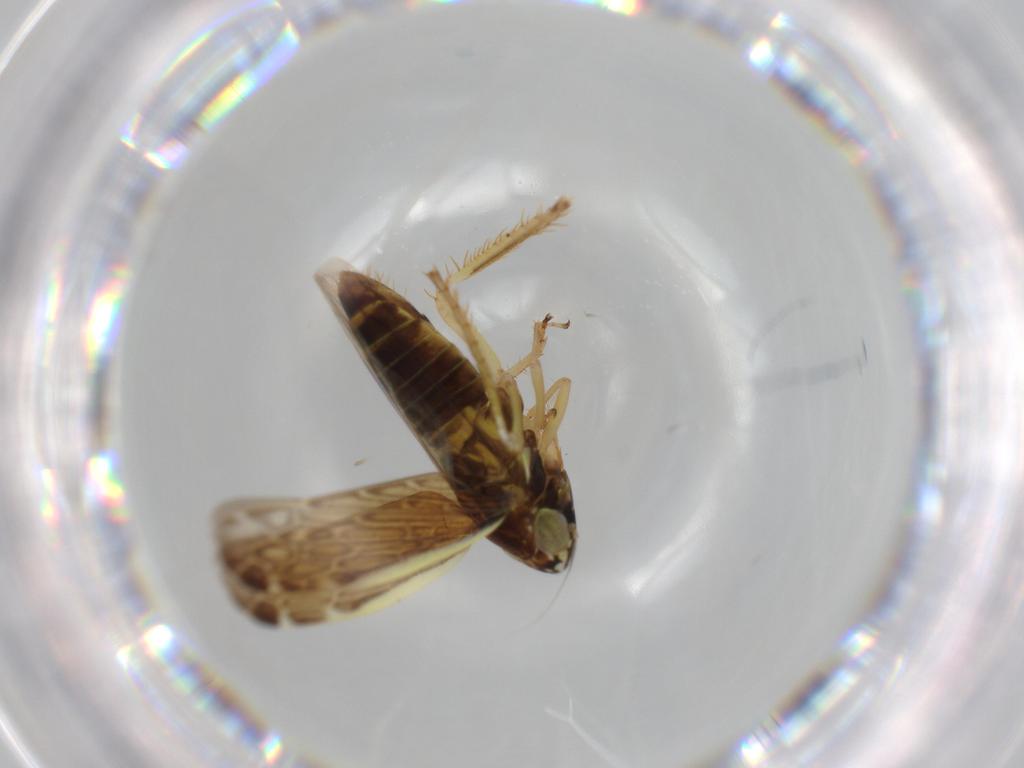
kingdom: Animalia
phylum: Arthropoda
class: Insecta
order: Hemiptera
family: Cicadellidae
